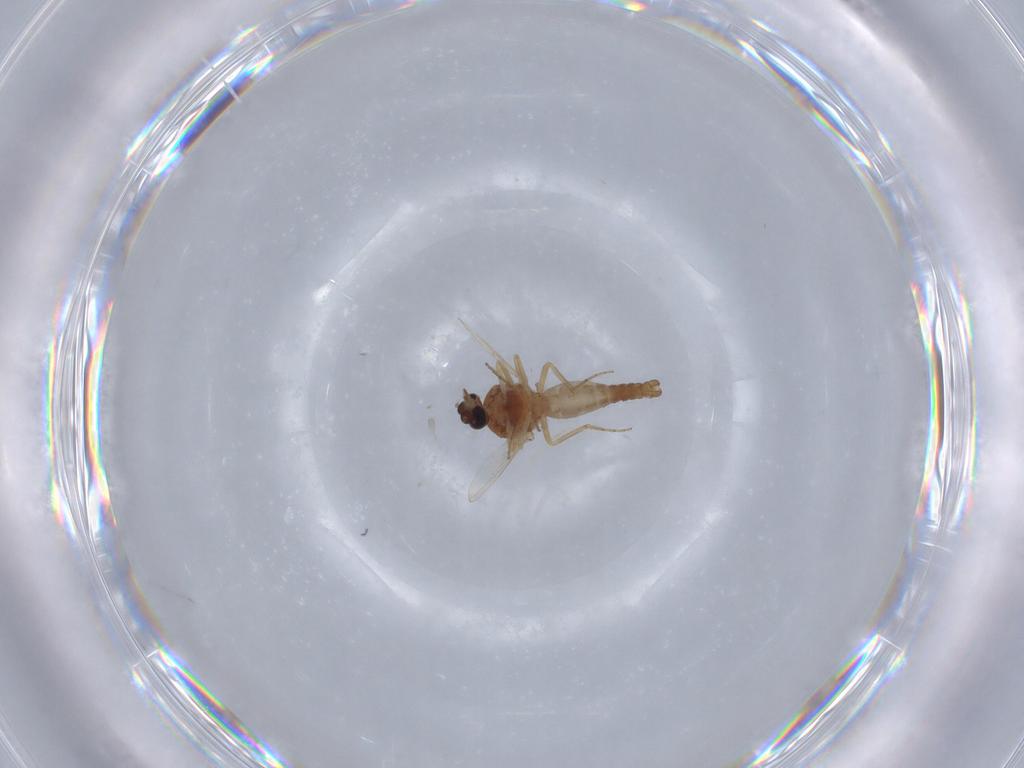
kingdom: Animalia
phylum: Arthropoda
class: Insecta
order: Diptera
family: Ceratopogonidae
